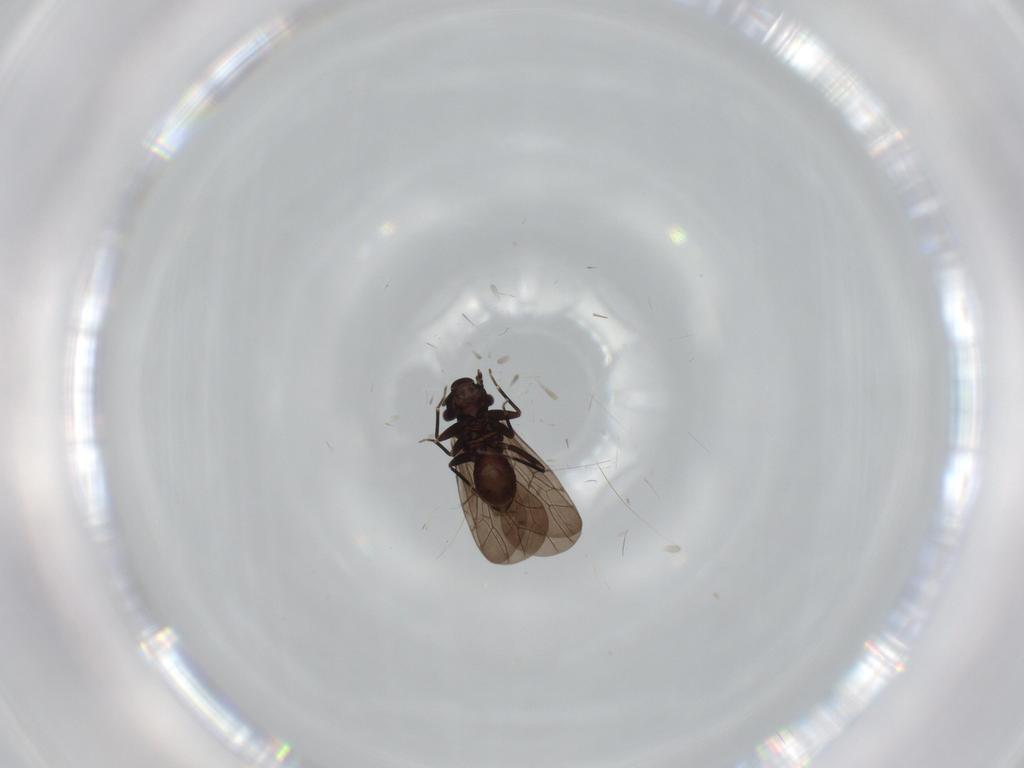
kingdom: Animalia
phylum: Arthropoda
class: Insecta
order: Psocodea
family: Lepidopsocidae
